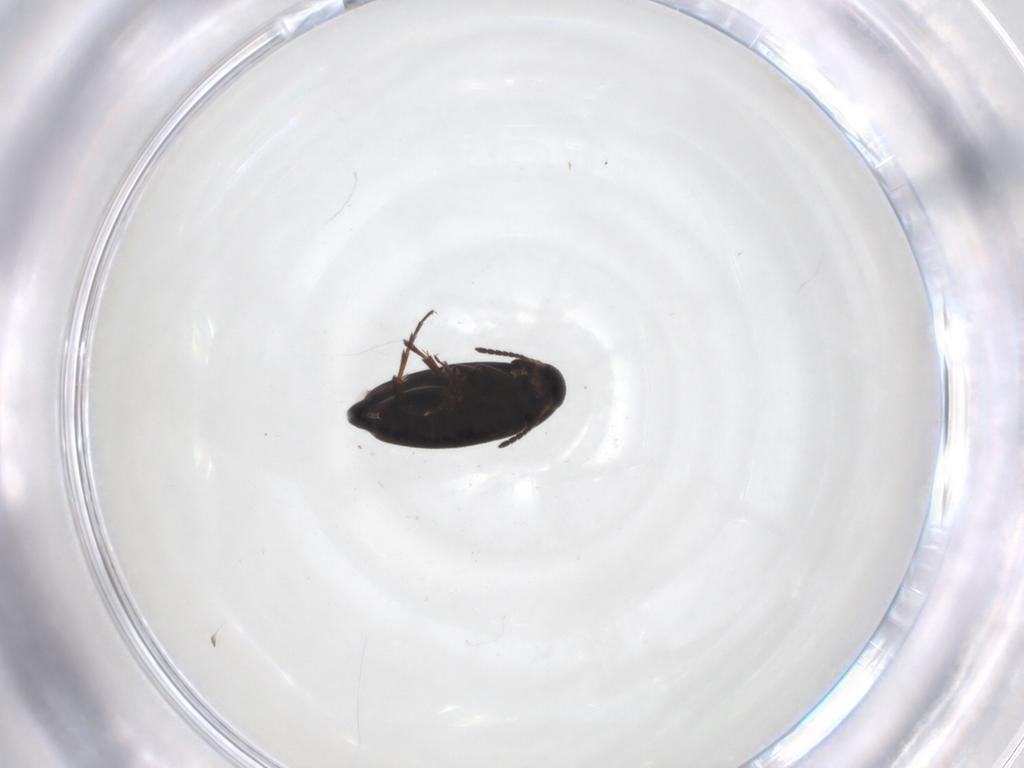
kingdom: Animalia
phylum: Arthropoda
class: Insecta
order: Coleoptera
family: Scraptiidae
